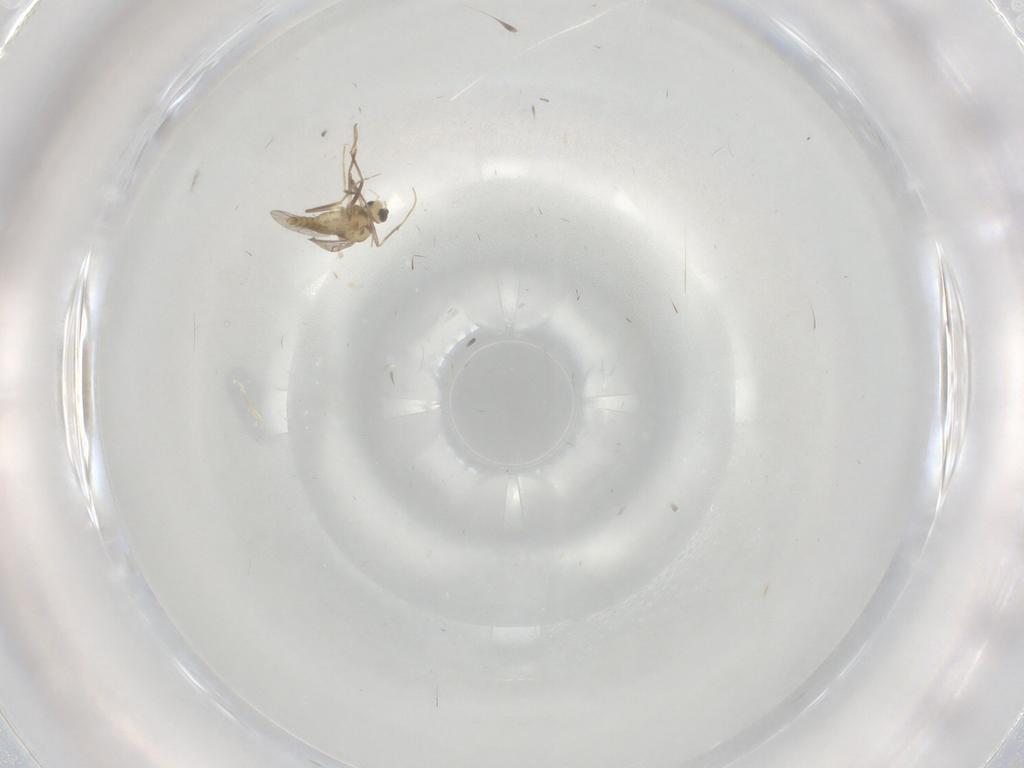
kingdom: Animalia
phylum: Arthropoda
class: Insecta
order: Diptera
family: Chironomidae
